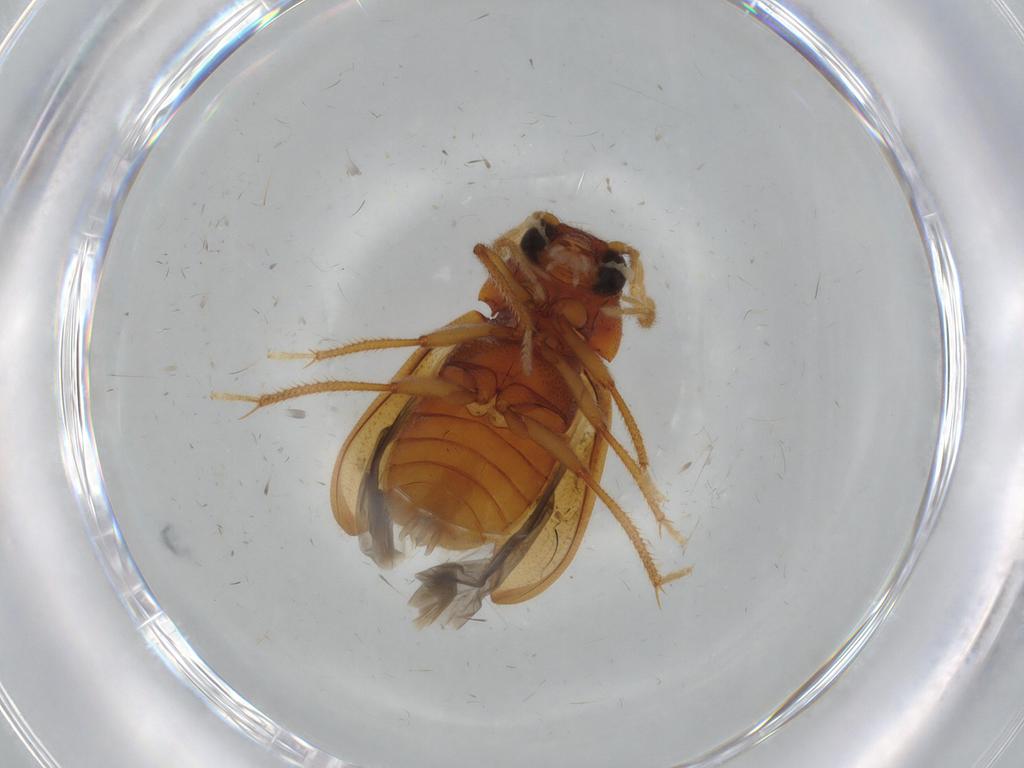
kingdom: Animalia
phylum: Arthropoda
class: Insecta
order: Coleoptera
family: Ptilodactylidae
